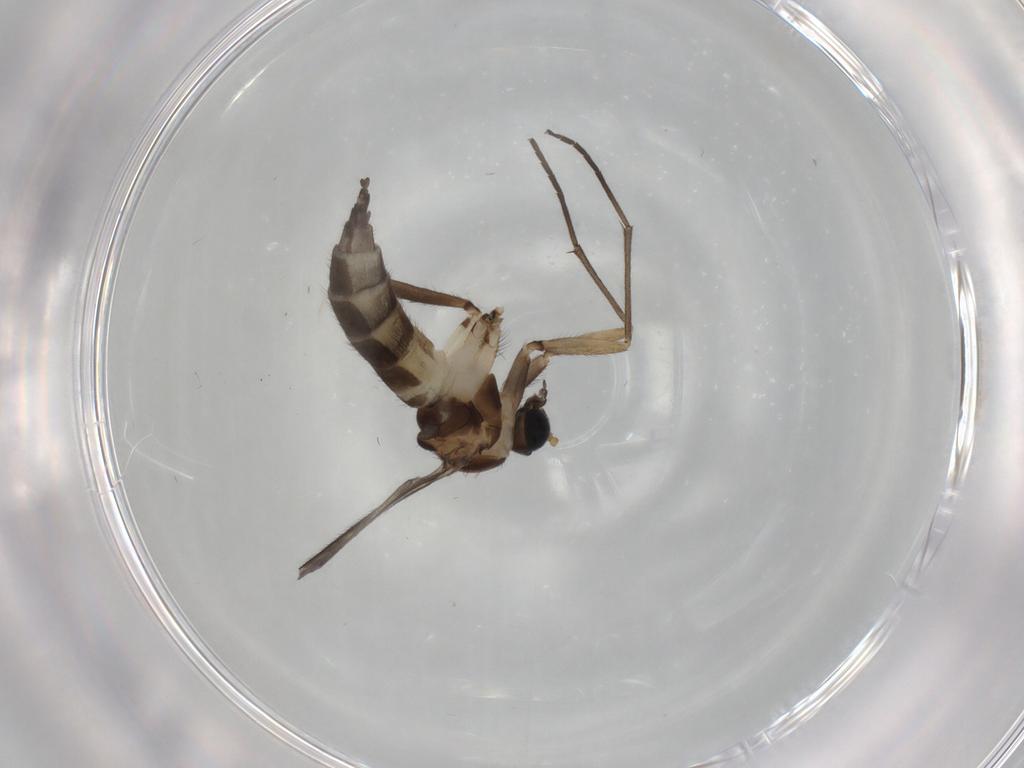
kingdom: Animalia
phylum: Arthropoda
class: Insecta
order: Diptera
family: Sciaridae
